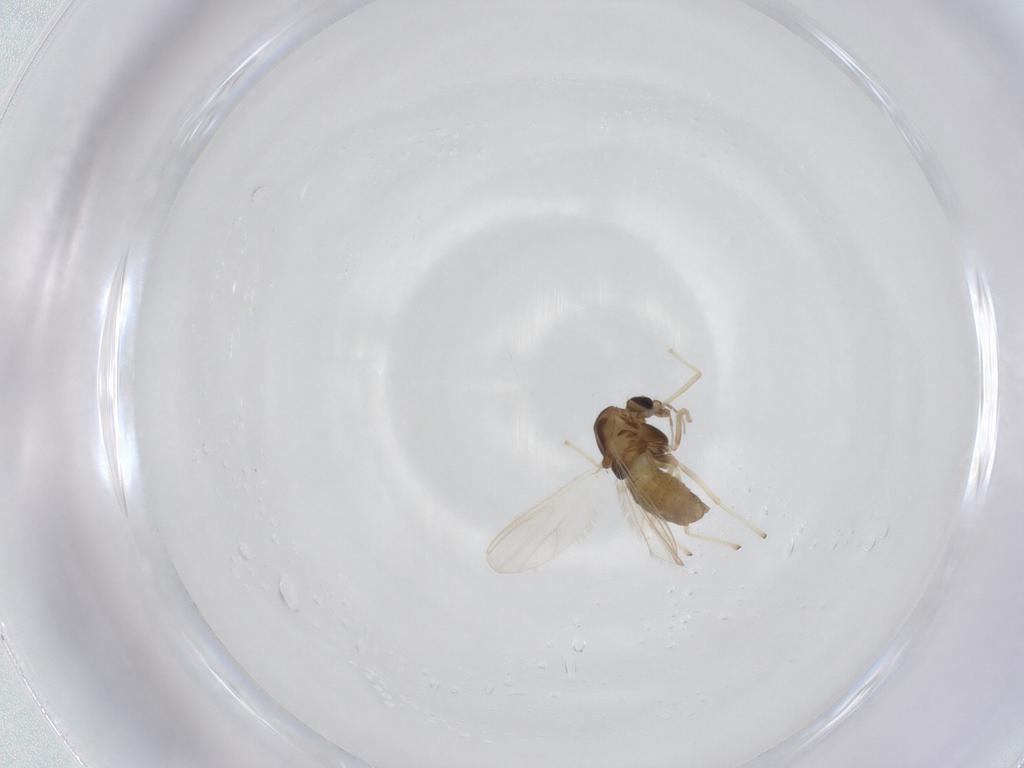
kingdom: Animalia
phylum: Arthropoda
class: Insecta
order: Diptera
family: Chironomidae
